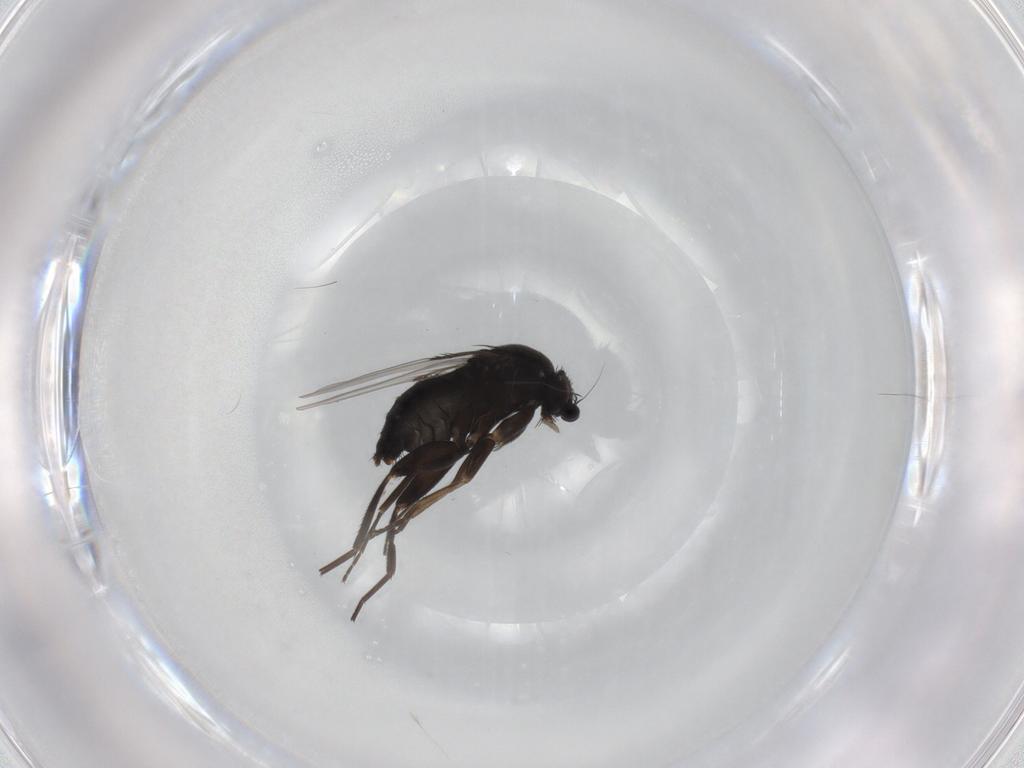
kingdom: Animalia
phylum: Arthropoda
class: Insecta
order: Diptera
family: Phoridae
